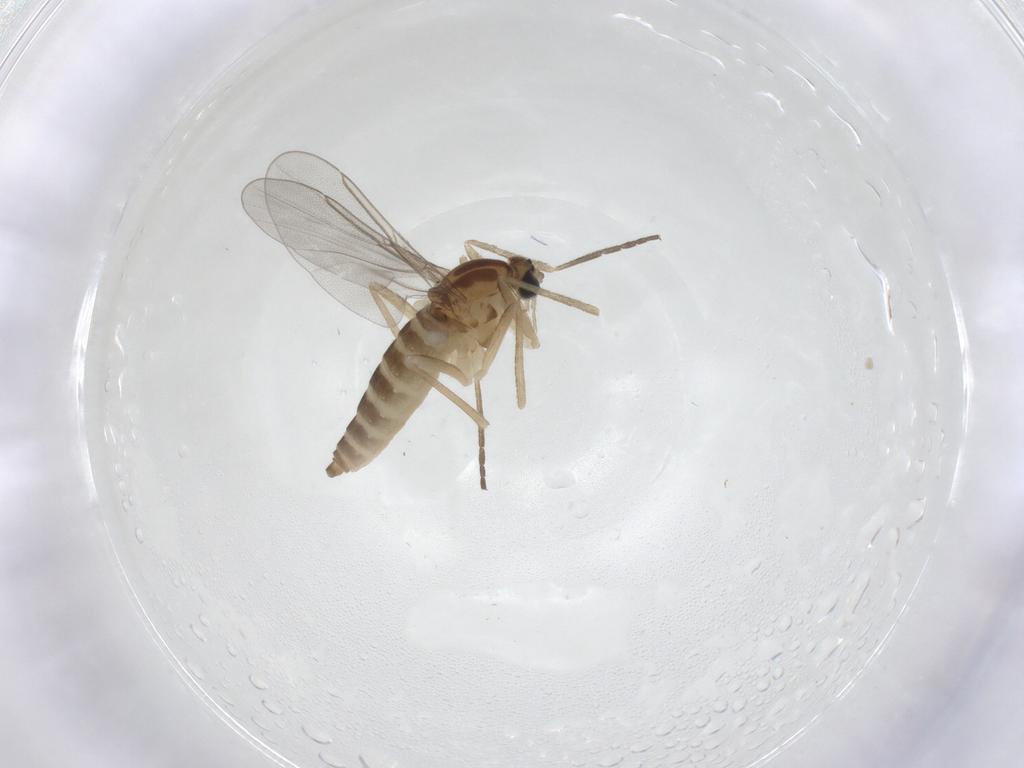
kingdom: Animalia
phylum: Arthropoda
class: Insecta
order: Diptera
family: Cecidomyiidae
